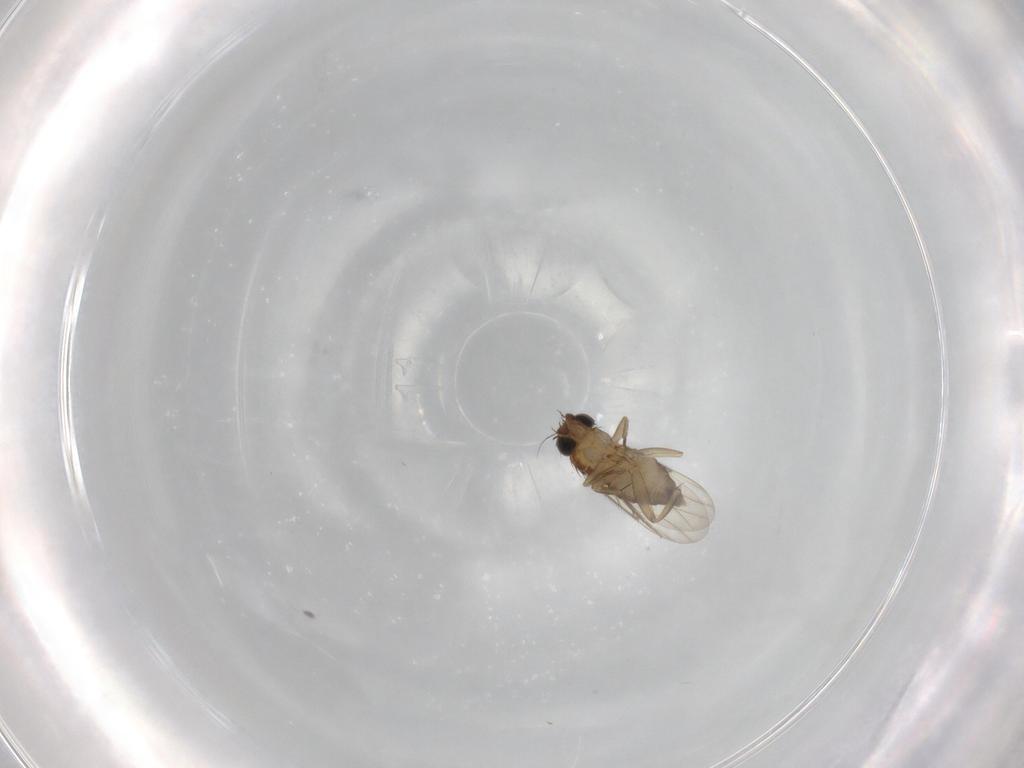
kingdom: Animalia
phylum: Arthropoda
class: Insecta
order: Diptera
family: Phoridae
